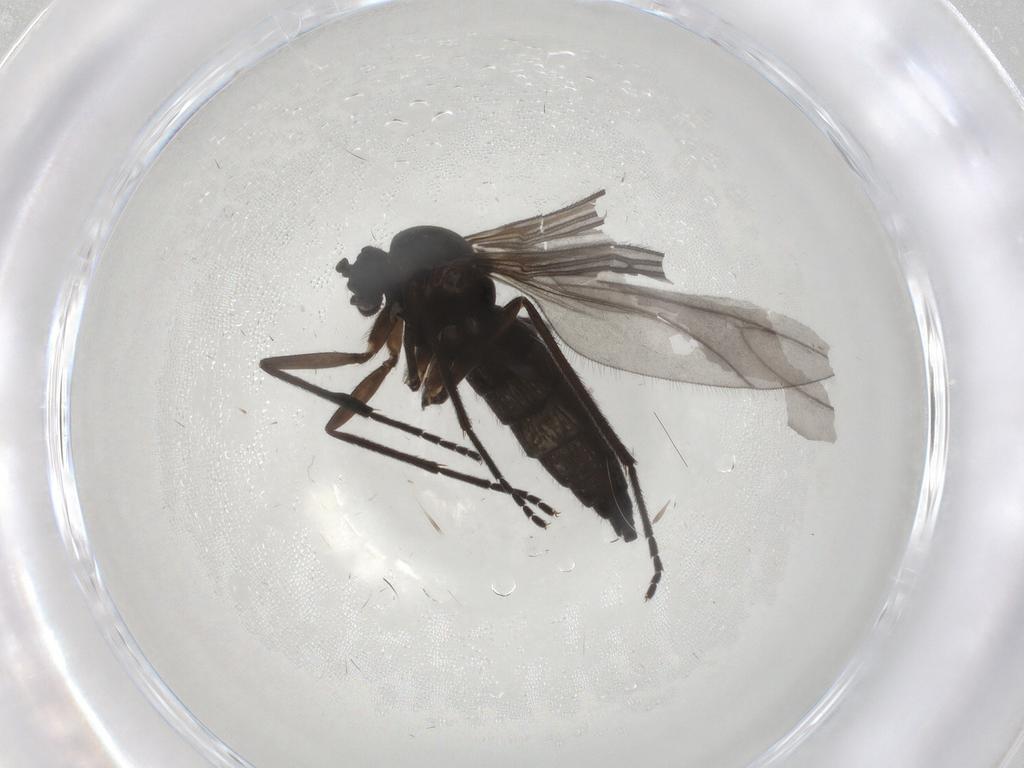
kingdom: Animalia
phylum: Arthropoda
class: Insecta
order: Diptera
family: Sciaridae
